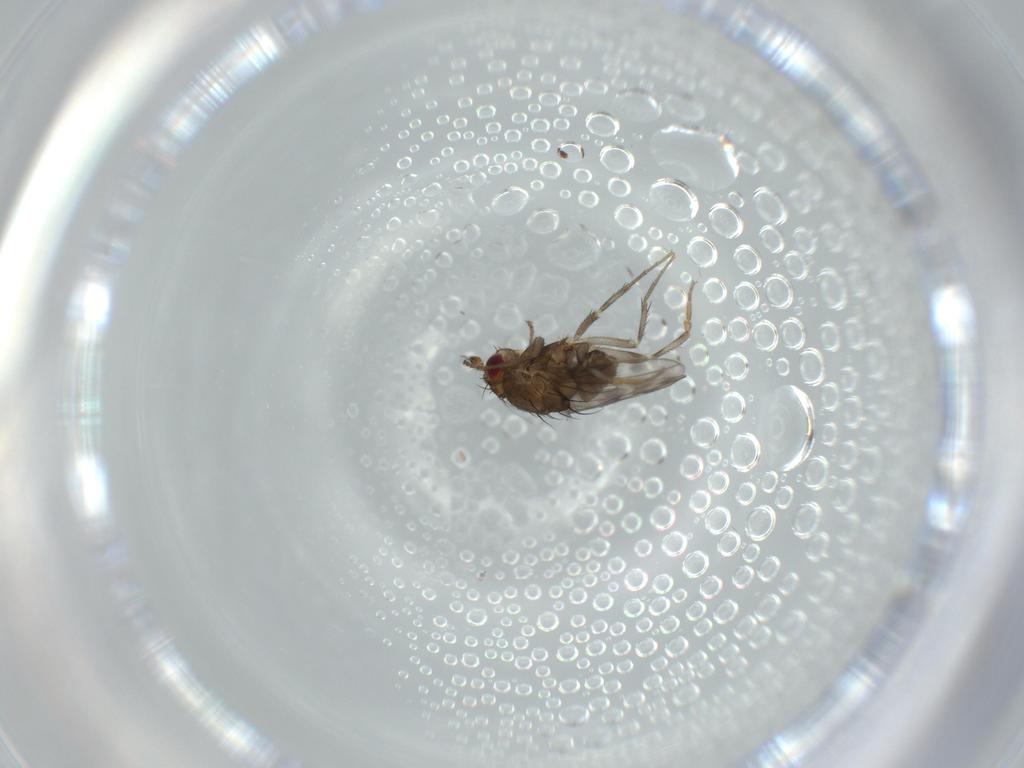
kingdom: Animalia
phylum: Arthropoda
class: Insecta
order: Diptera
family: Sphaeroceridae
